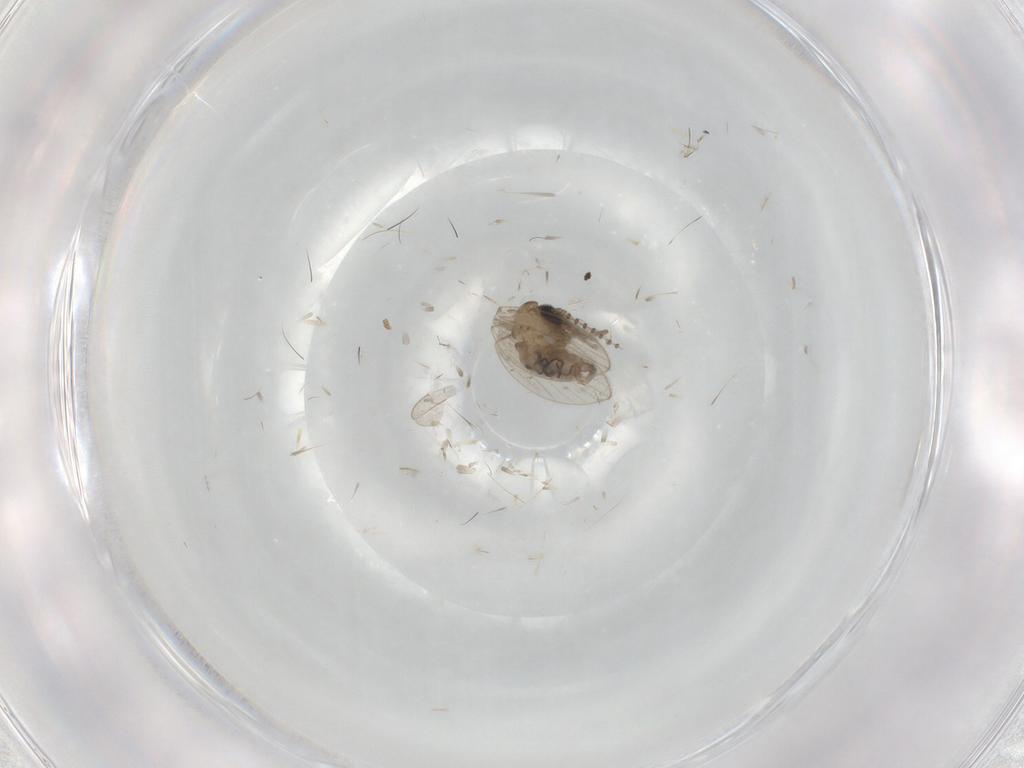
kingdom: Animalia
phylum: Arthropoda
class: Insecta
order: Diptera
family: Psychodidae
